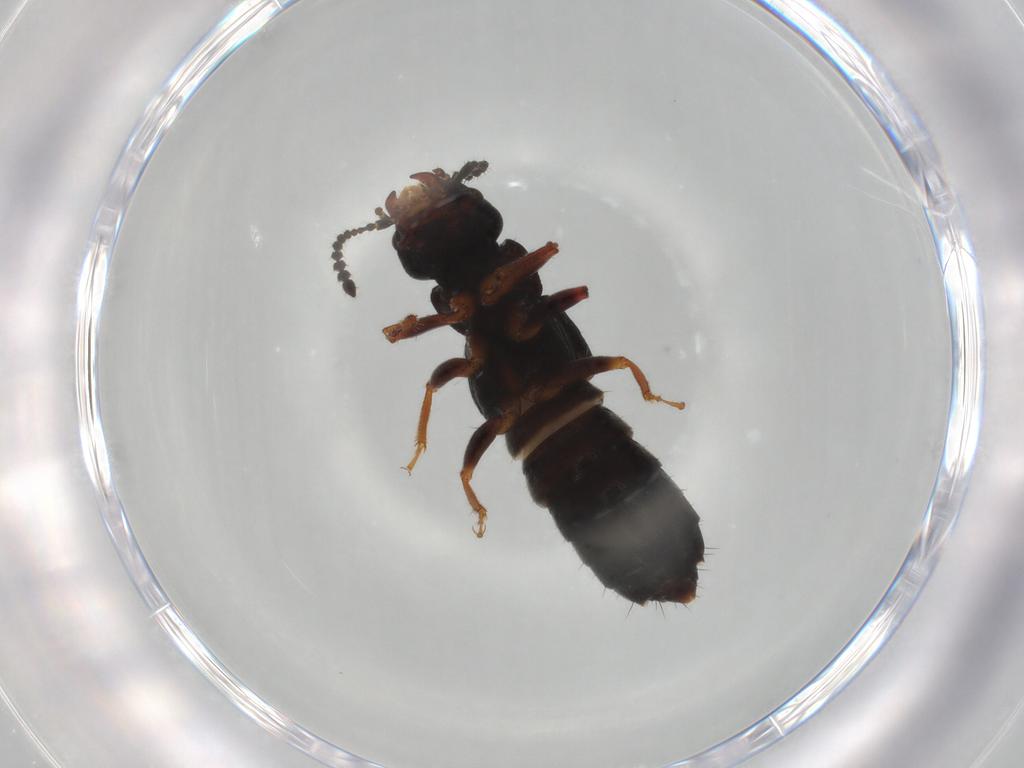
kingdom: Animalia
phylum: Arthropoda
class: Insecta
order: Coleoptera
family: Staphylinidae
